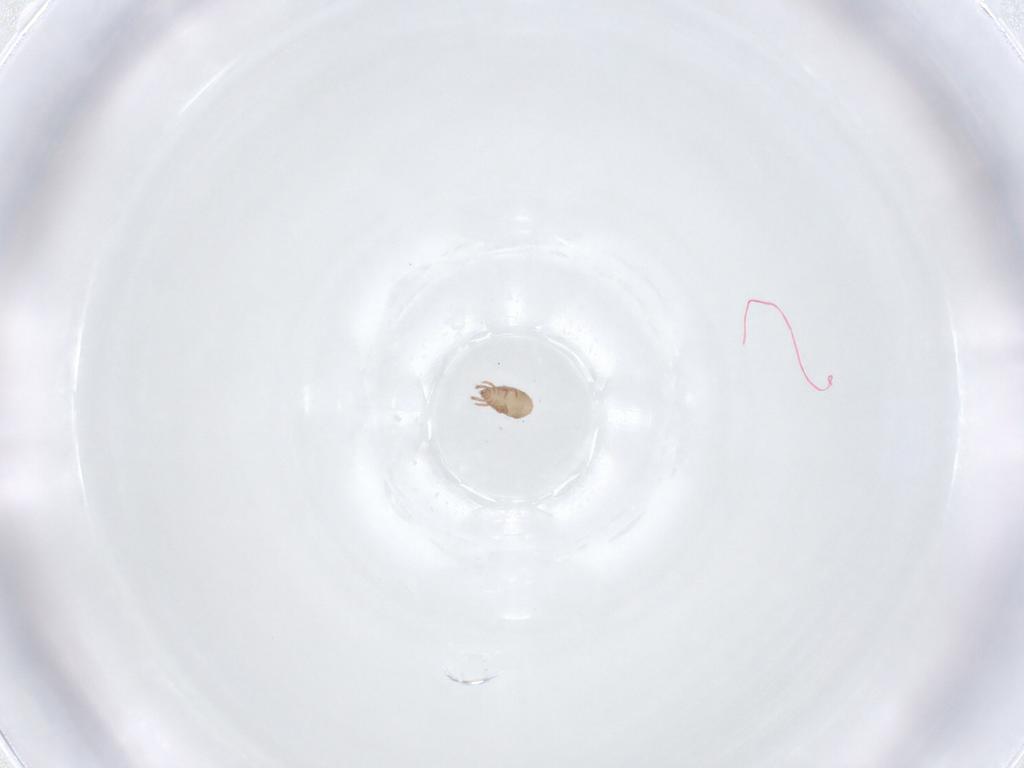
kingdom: Animalia
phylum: Arthropoda
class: Arachnida
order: Sarcoptiformes
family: Phenopelopidae
